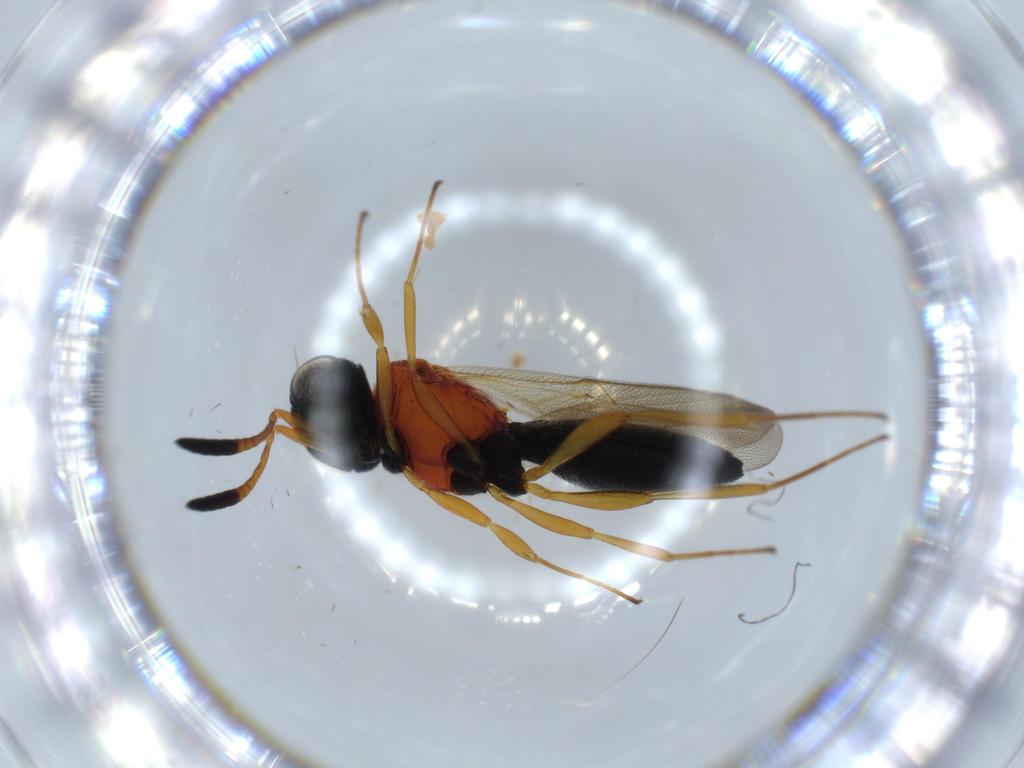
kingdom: Animalia
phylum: Arthropoda
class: Insecta
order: Hymenoptera
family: Scelionidae
